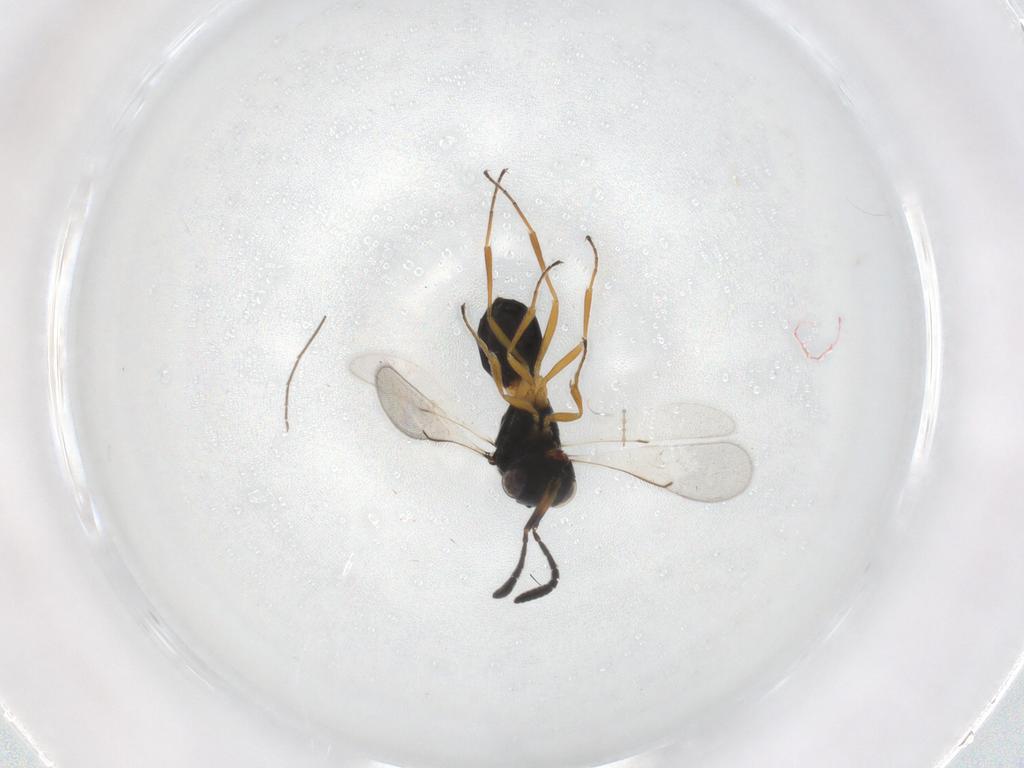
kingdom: Animalia
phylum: Arthropoda
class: Insecta
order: Hymenoptera
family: Scelionidae
